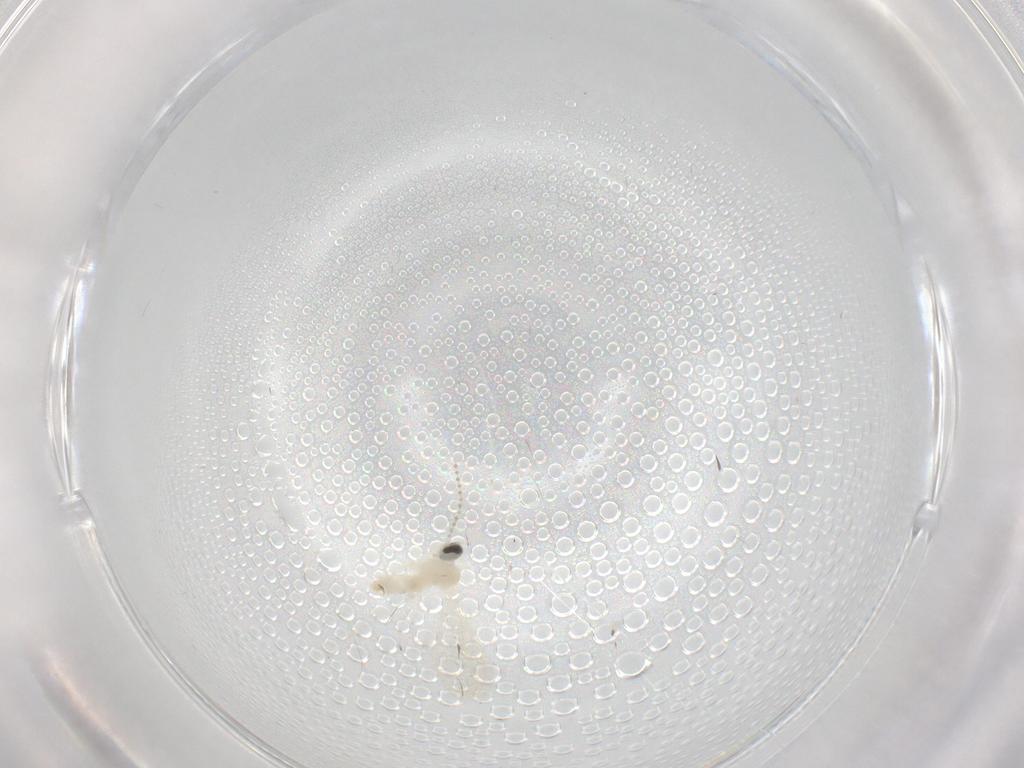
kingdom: Animalia
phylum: Arthropoda
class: Insecta
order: Diptera
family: Cecidomyiidae
